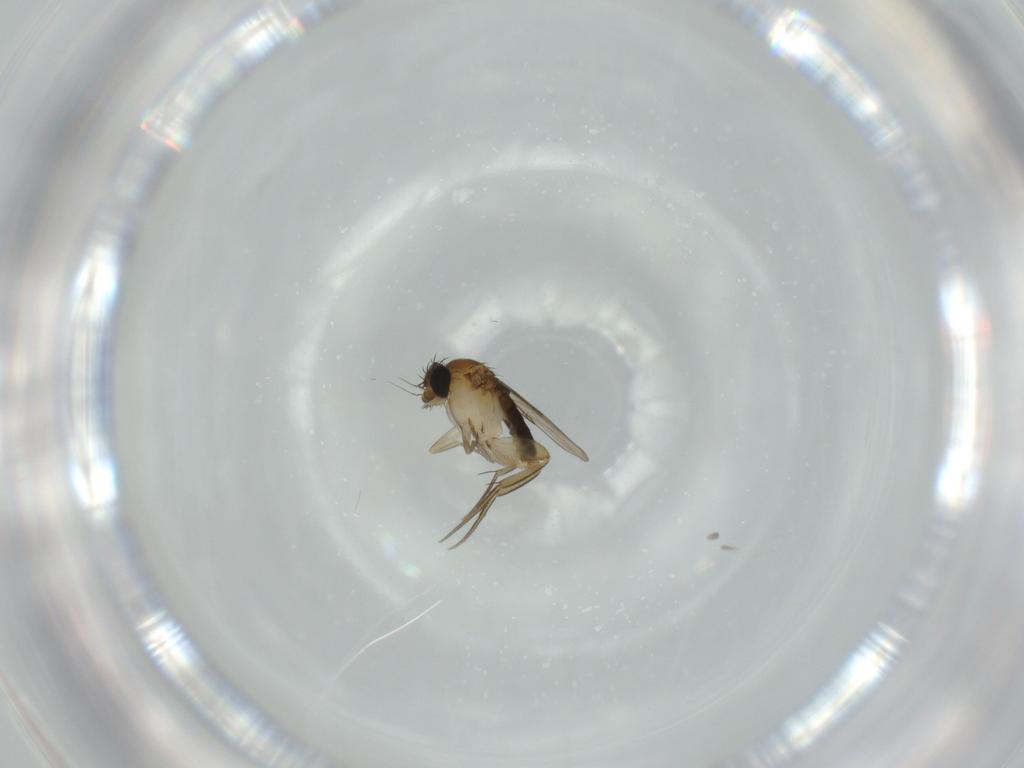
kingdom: Animalia
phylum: Arthropoda
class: Insecta
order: Diptera
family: Phoridae
